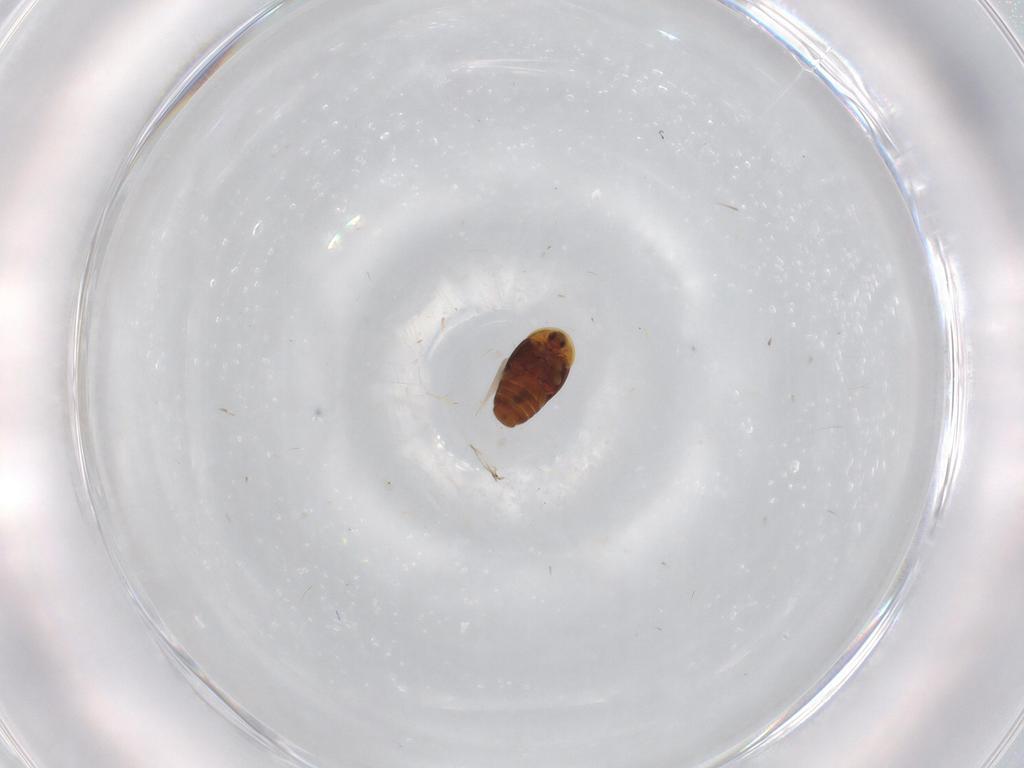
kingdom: Animalia
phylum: Arthropoda
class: Insecta
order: Coleoptera
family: Corylophidae
